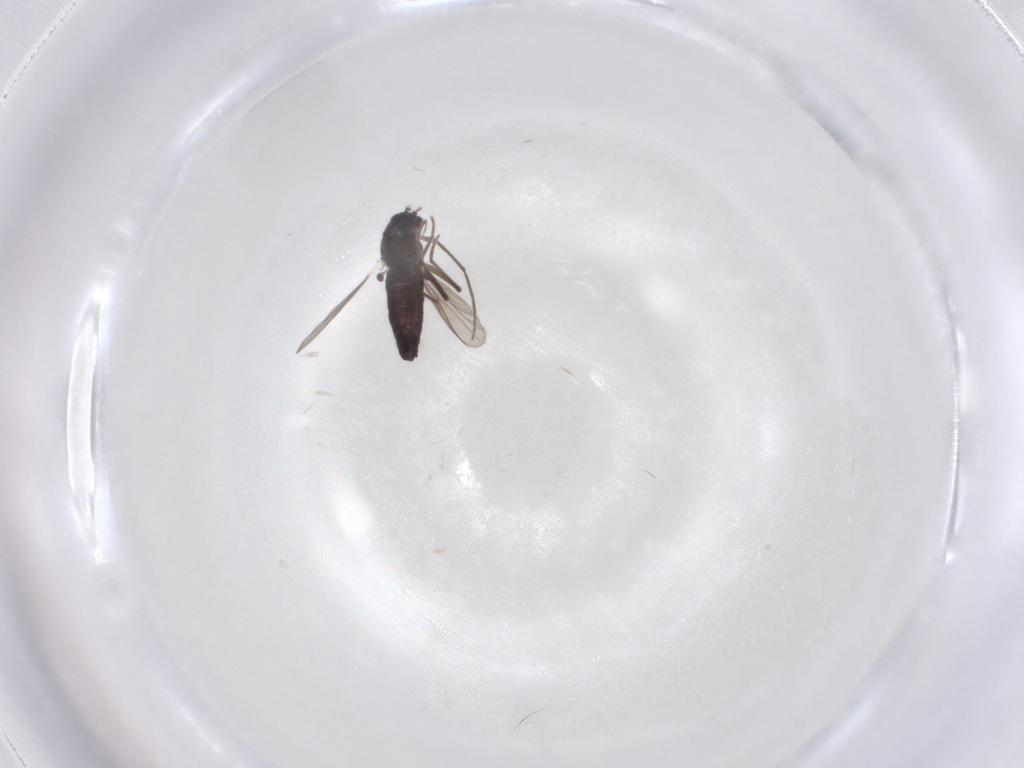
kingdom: Animalia
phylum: Arthropoda
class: Insecta
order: Diptera
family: Chironomidae
